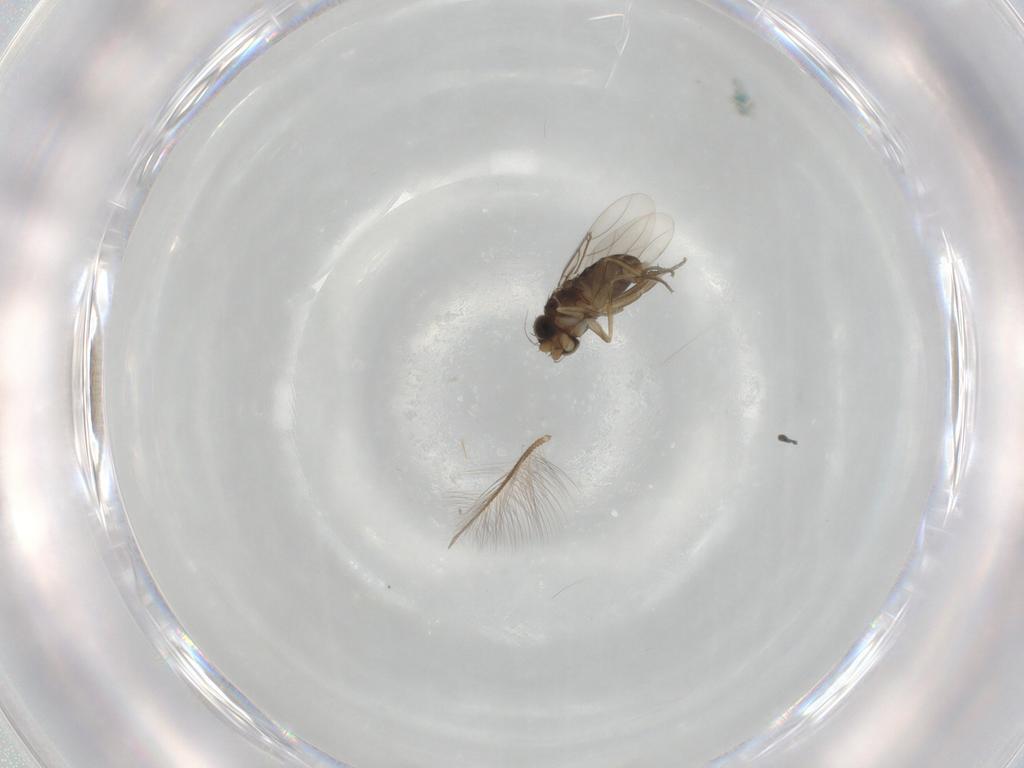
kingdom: Animalia
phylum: Arthropoda
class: Insecta
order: Diptera
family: Phoridae
